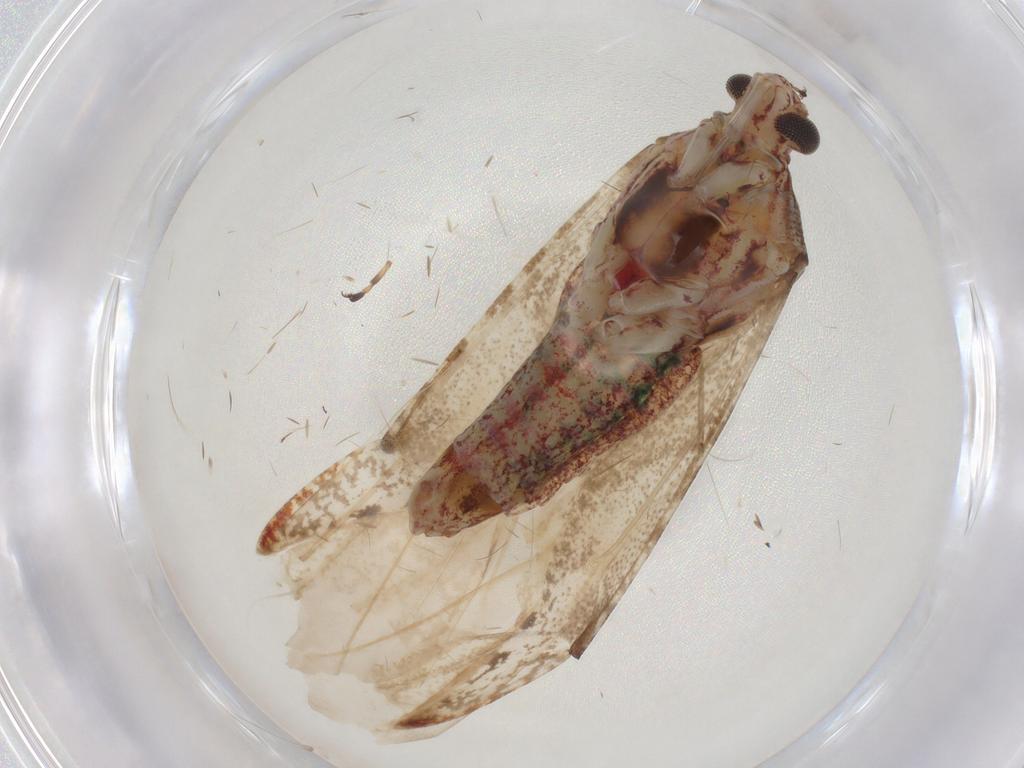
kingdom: Animalia
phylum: Arthropoda
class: Insecta
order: Hemiptera
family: Miridae
